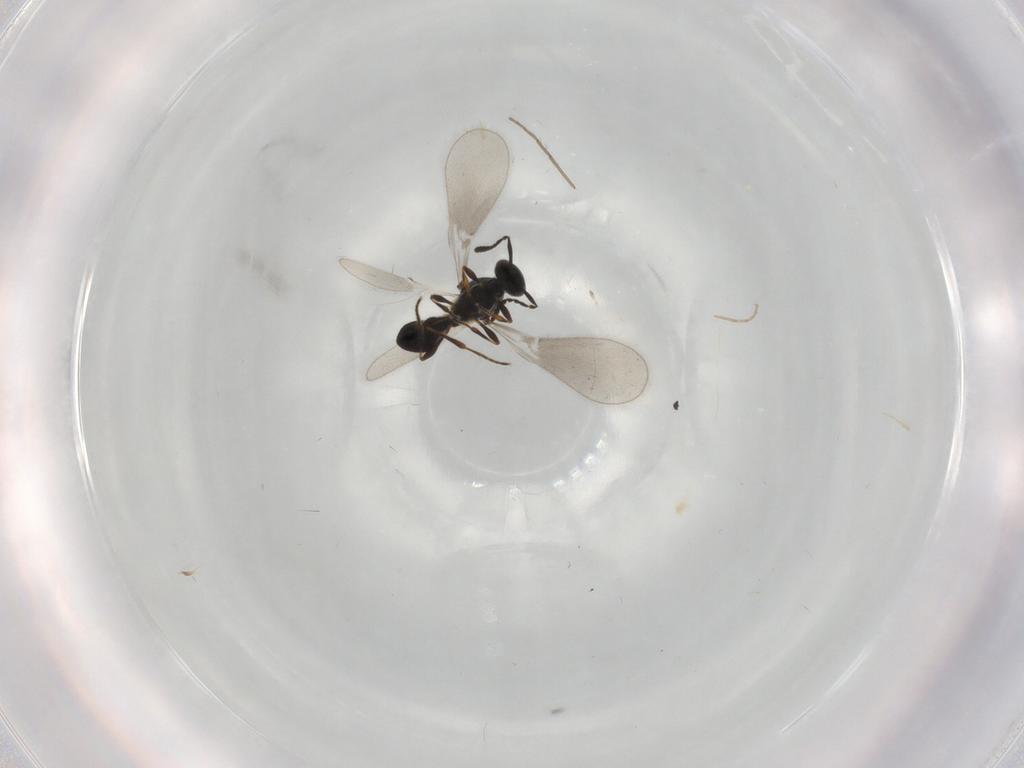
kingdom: Animalia
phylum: Arthropoda
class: Insecta
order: Hymenoptera
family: Platygastridae
